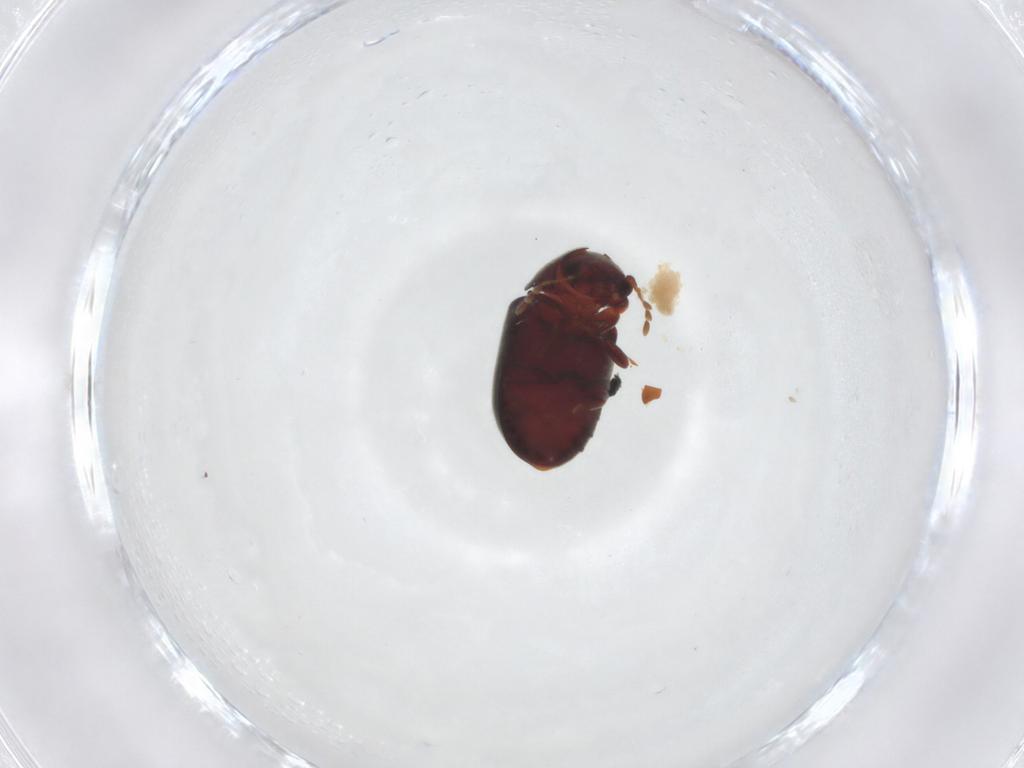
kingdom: Animalia
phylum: Arthropoda
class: Insecta
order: Coleoptera
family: Ptinidae
